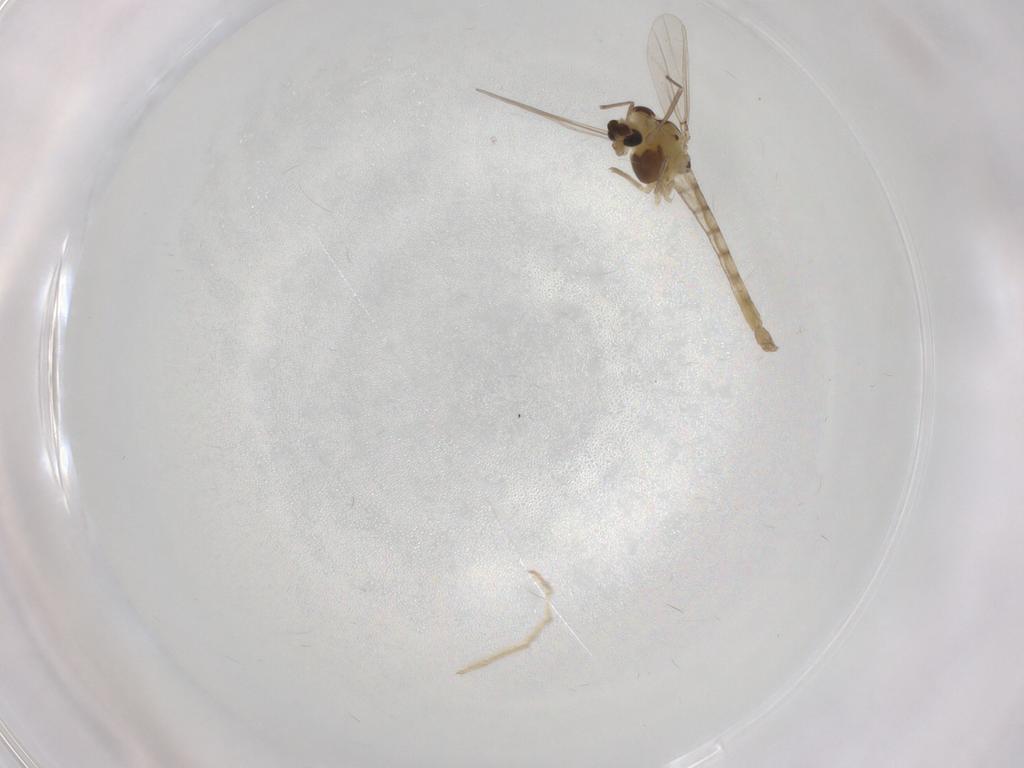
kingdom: Animalia
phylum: Arthropoda
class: Insecta
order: Diptera
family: Chironomidae
